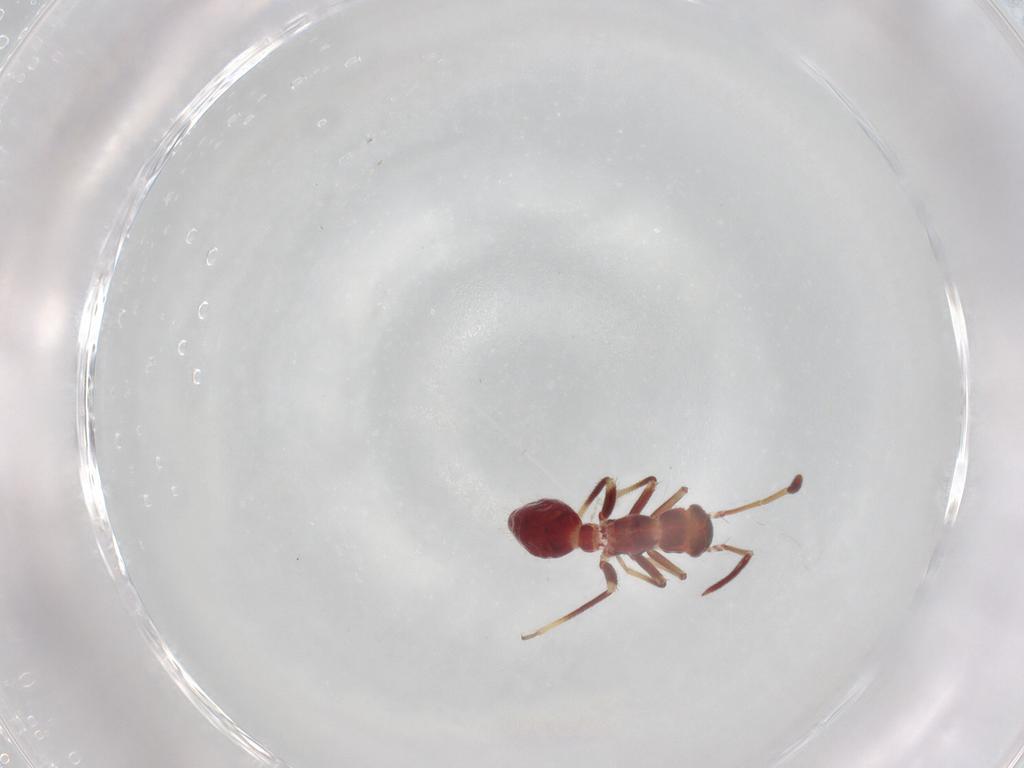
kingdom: Animalia
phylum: Arthropoda
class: Insecta
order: Hemiptera
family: Miridae
